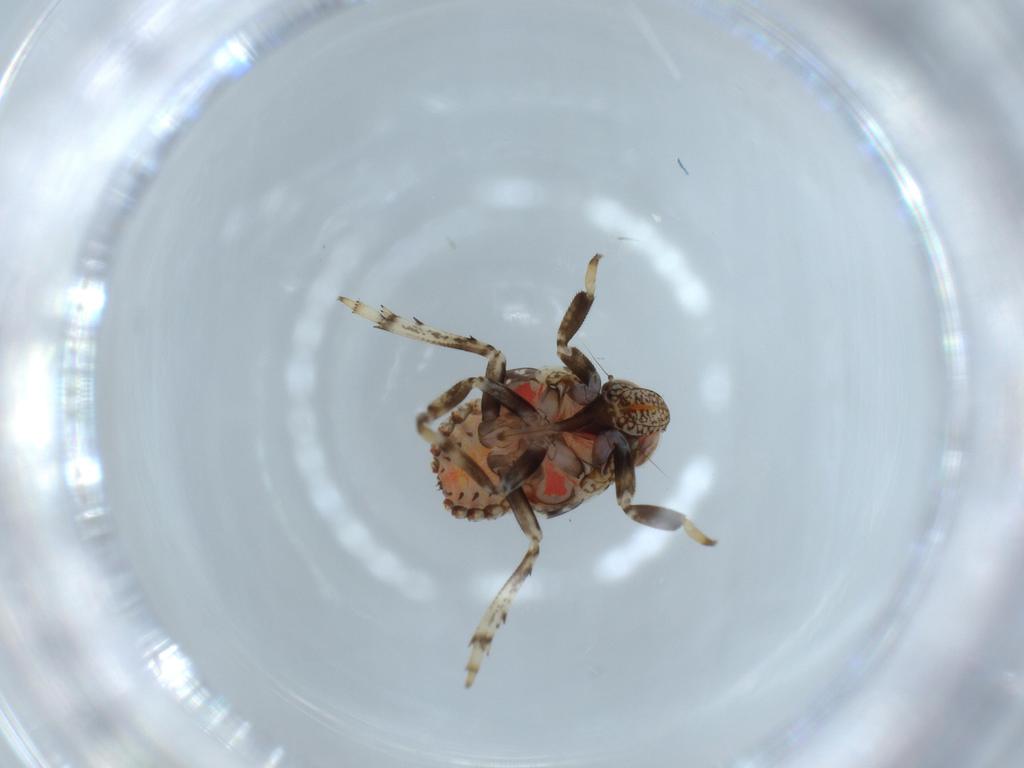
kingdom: Animalia
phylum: Arthropoda
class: Insecta
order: Hemiptera
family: Issidae
